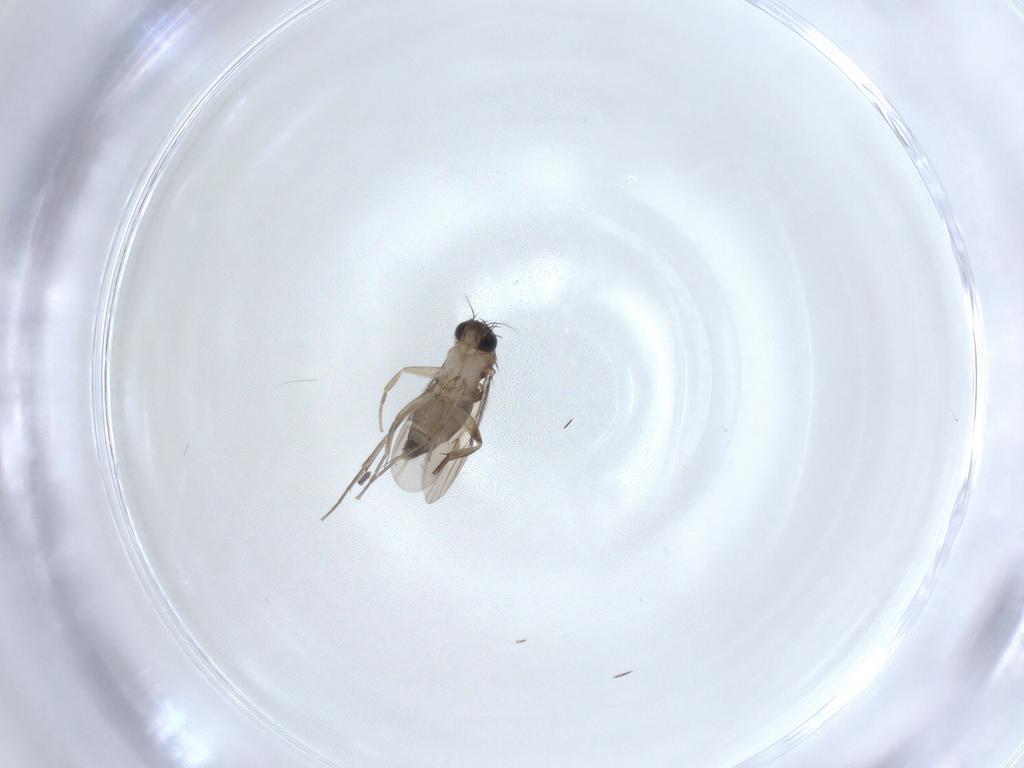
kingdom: Animalia
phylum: Arthropoda
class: Insecta
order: Diptera
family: Phoridae
